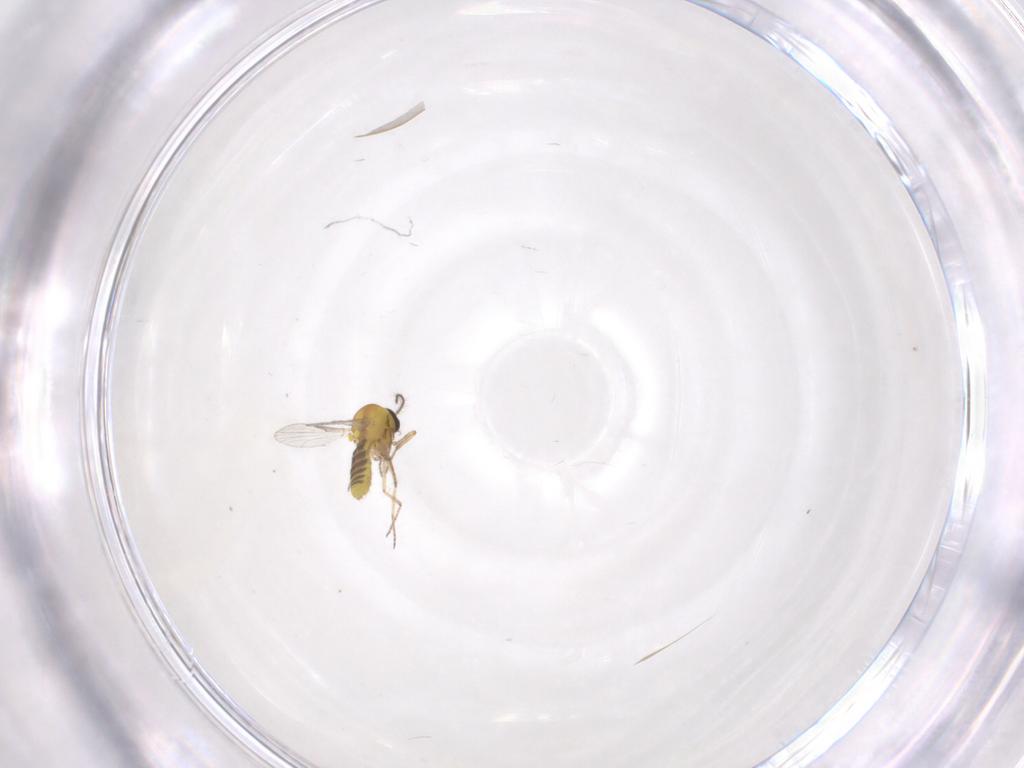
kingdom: Animalia
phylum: Arthropoda
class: Insecta
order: Diptera
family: Ceratopogonidae
